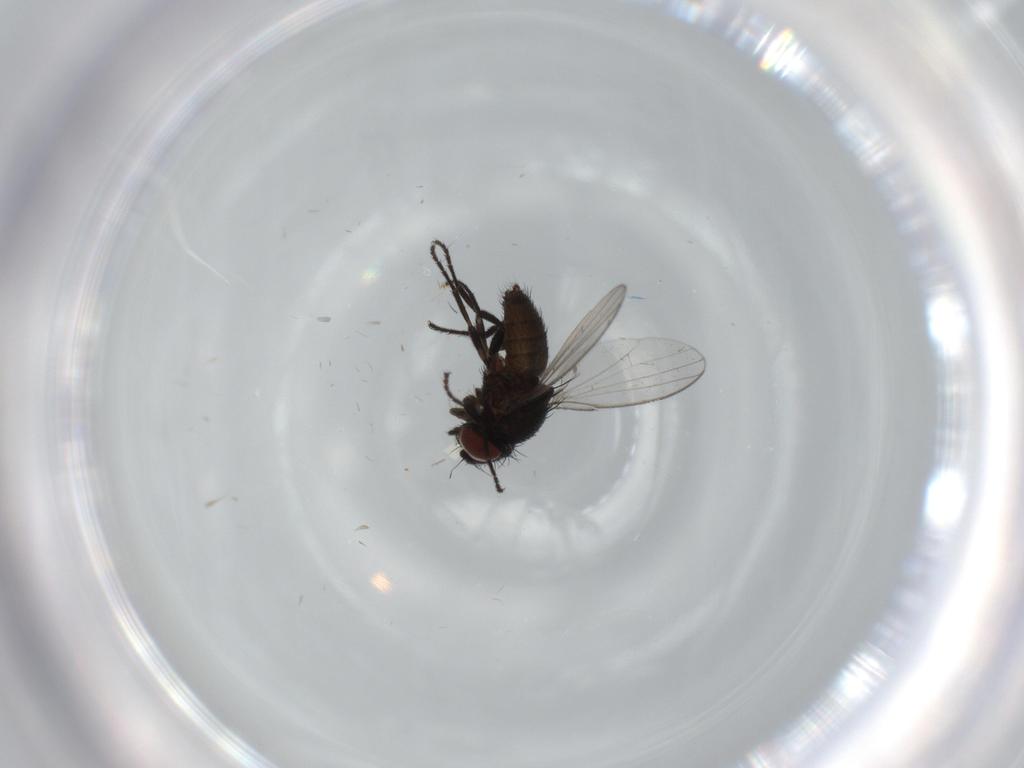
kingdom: Animalia
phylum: Arthropoda
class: Insecta
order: Diptera
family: Milichiidae
